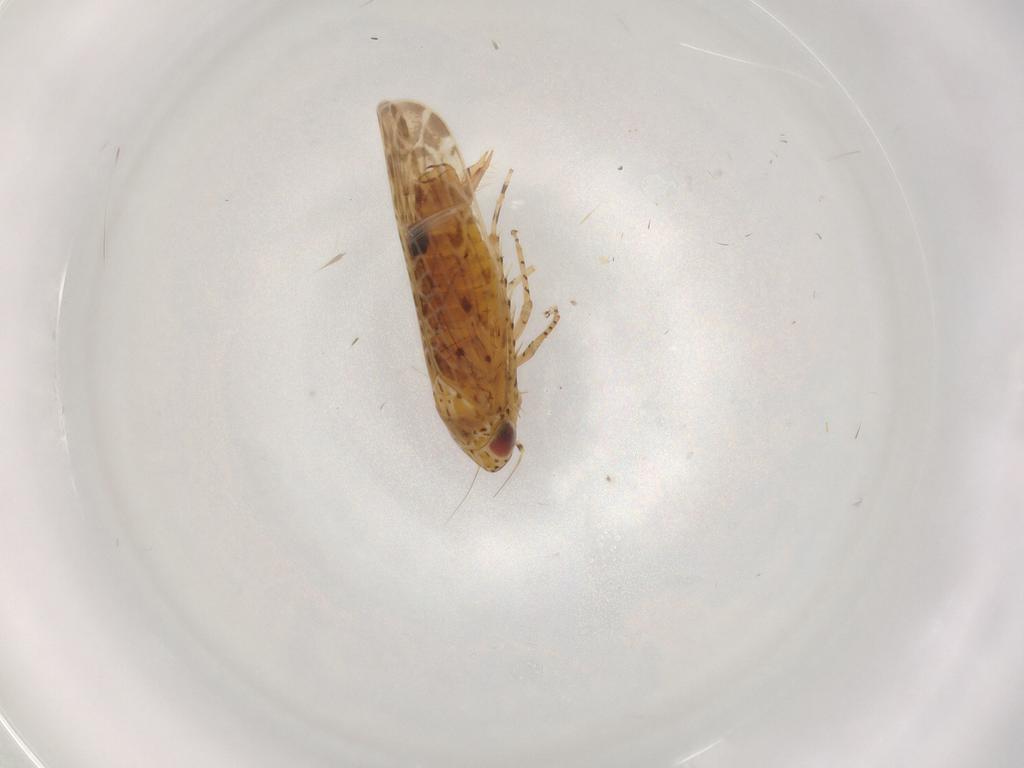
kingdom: Animalia
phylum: Arthropoda
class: Insecta
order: Hemiptera
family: Cicadellidae
